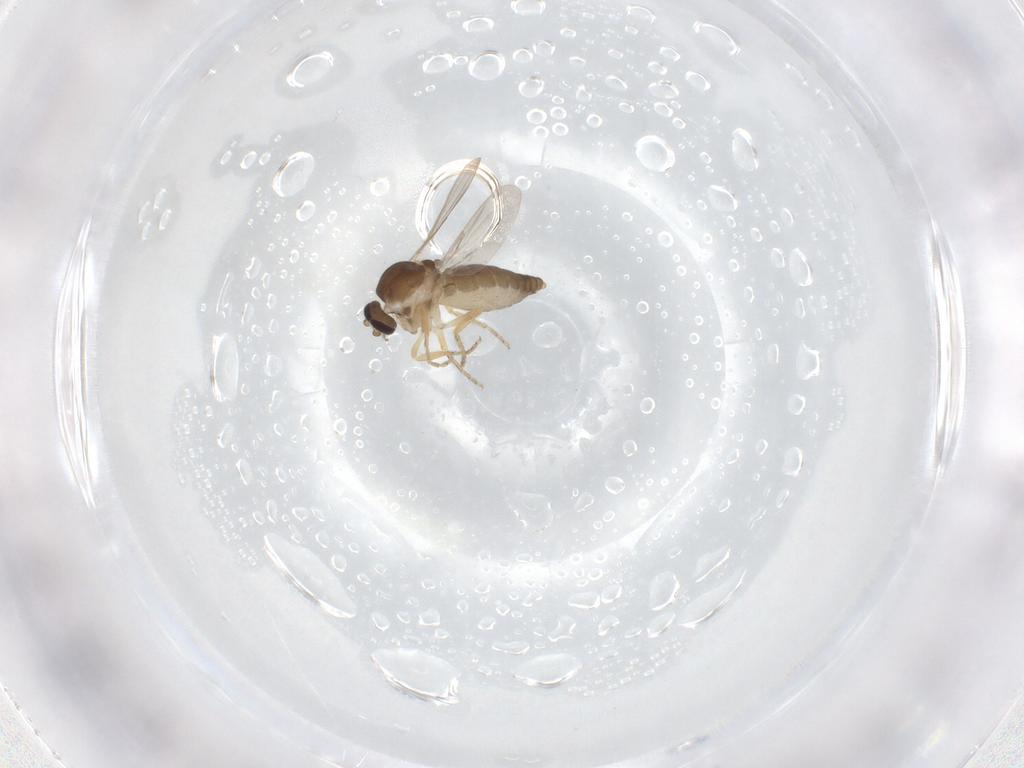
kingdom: Animalia
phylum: Arthropoda
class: Insecta
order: Diptera
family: Ceratopogonidae
